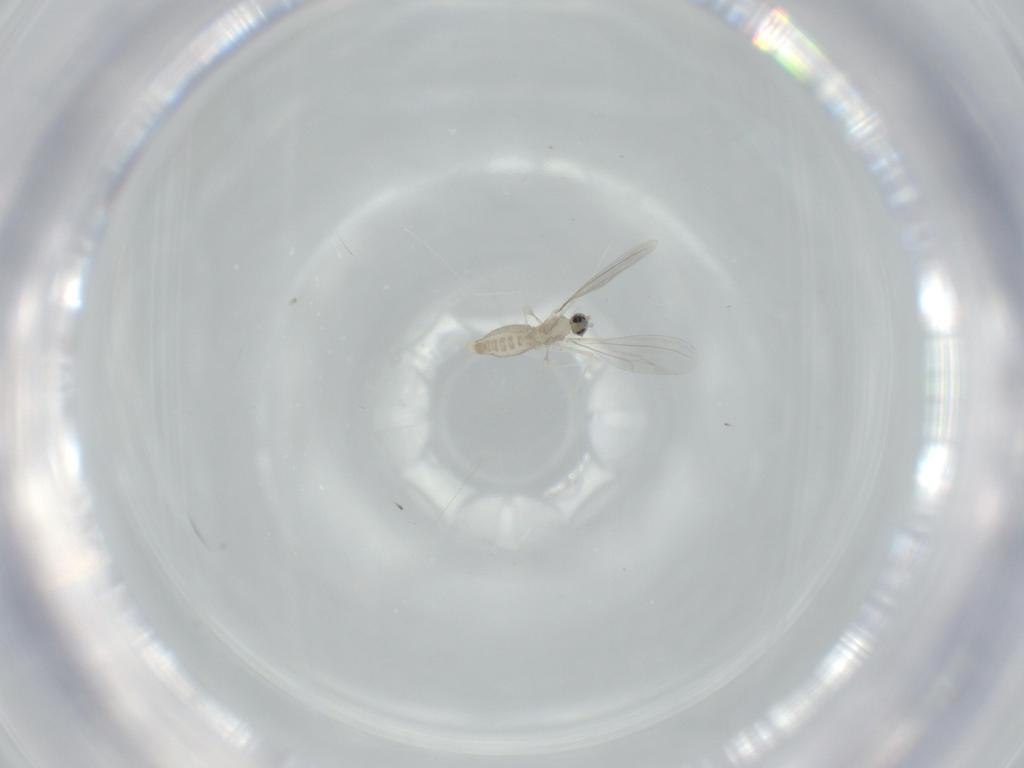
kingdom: Animalia
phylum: Arthropoda
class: Insecta
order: Diptera
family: Cecidomyiidae
